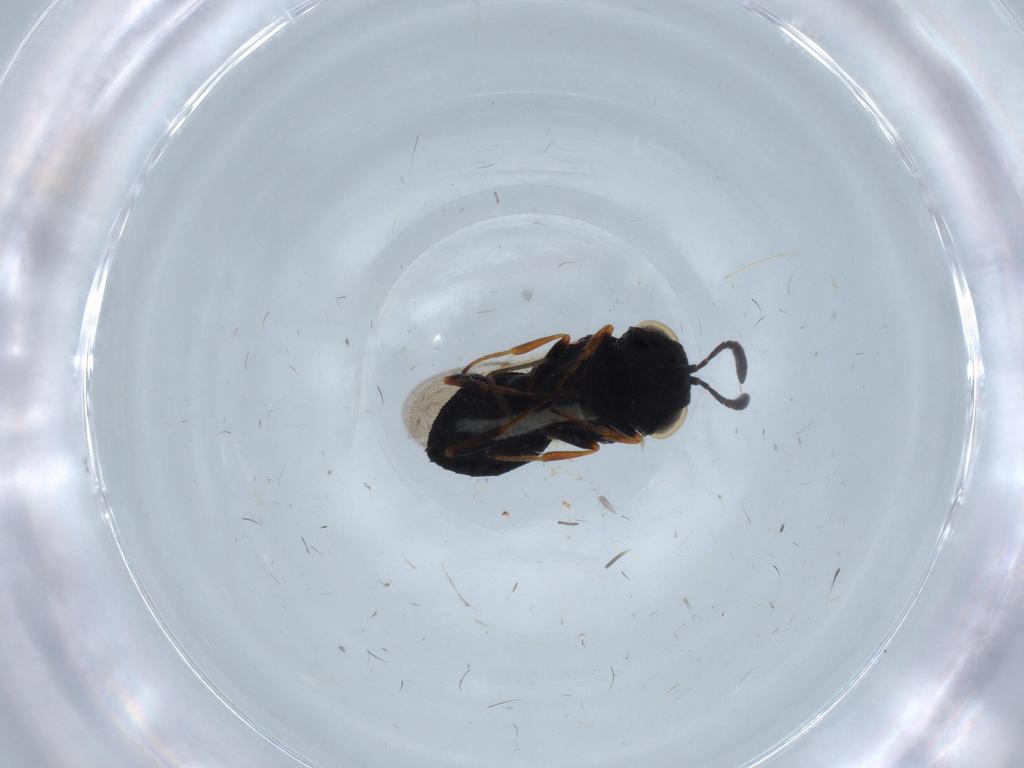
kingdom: Animalia
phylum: Arthropoda
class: Insecta
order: Hymenoptera
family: Scelionidae
